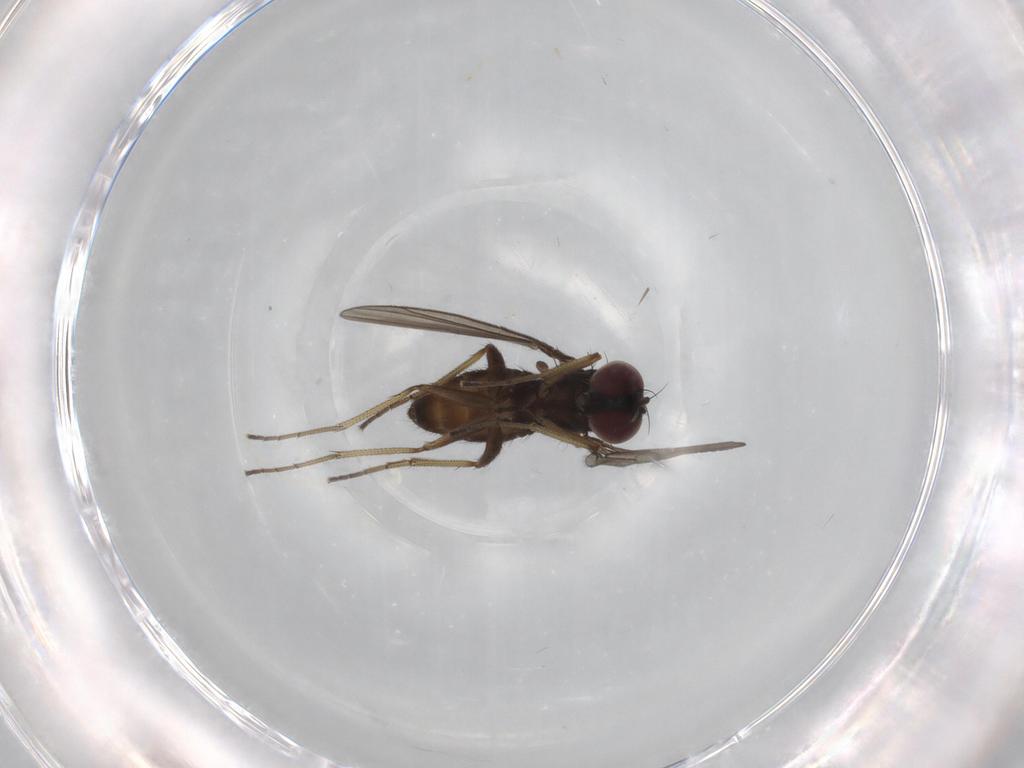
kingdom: Animalia
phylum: Arthropoda
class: Insecta
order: Diptera
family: Dolichopodidae
